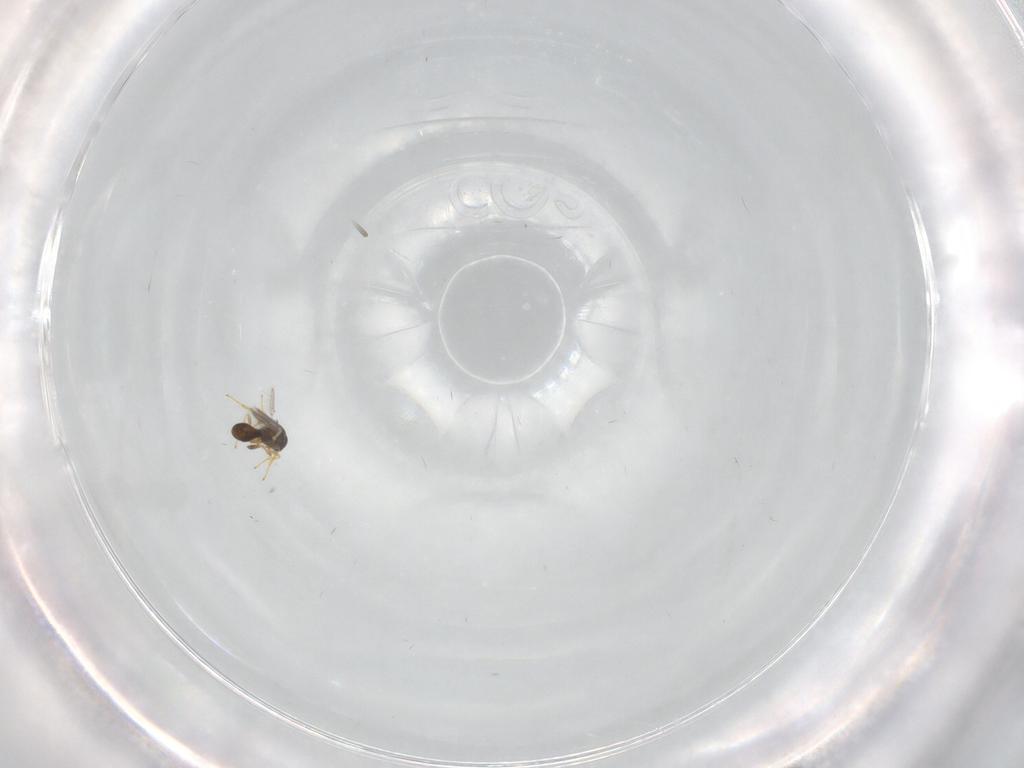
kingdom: Animalia
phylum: Arthropoda
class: Insecta
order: Hymenoptera
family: Platygastridae
